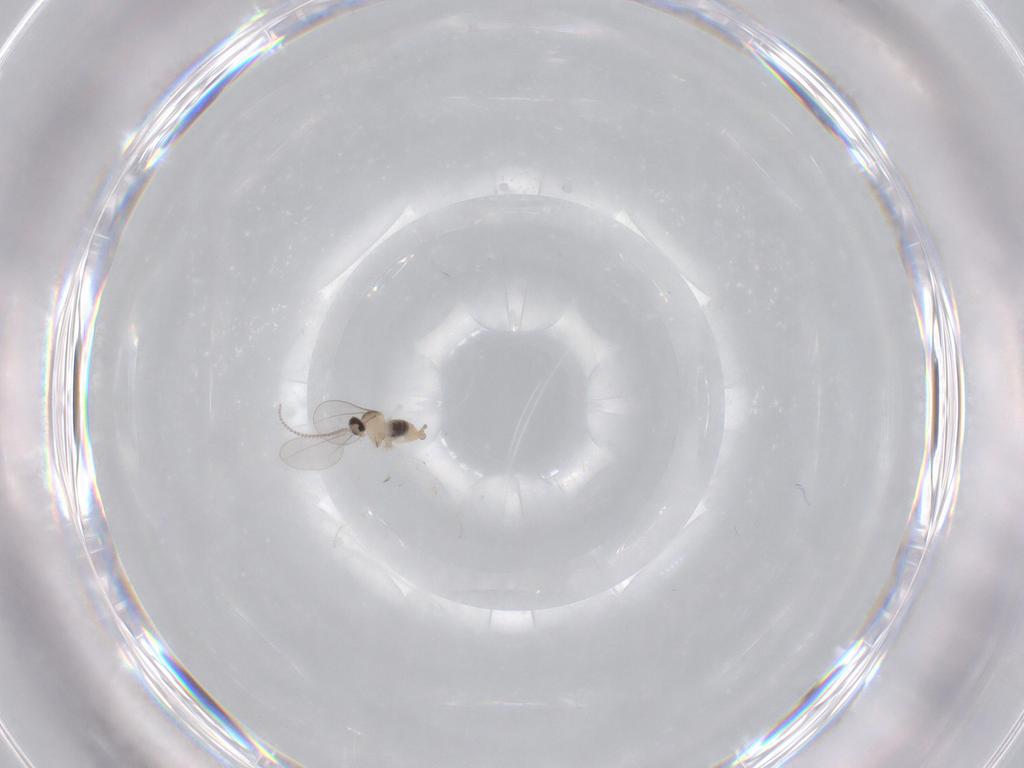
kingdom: Animalia
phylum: Arthropoda
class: Insecta
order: Diptera
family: Cecidomyiidae
